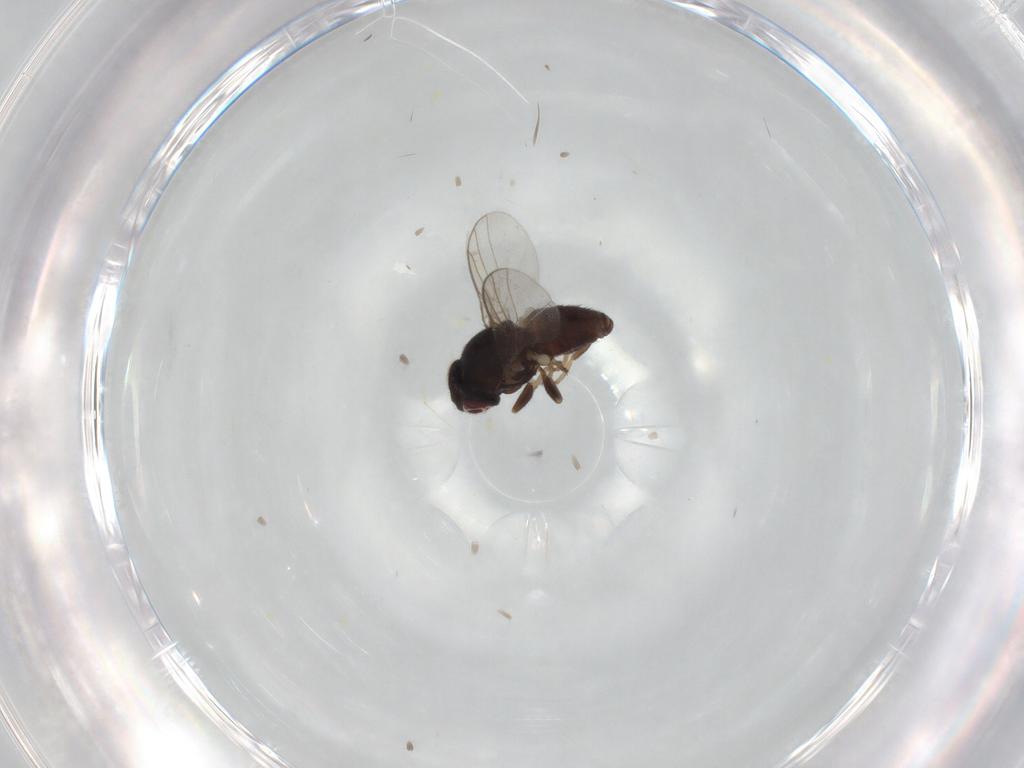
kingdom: Animalia
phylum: Arthropoda
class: Insecta
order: Diptera
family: Chloropidae
